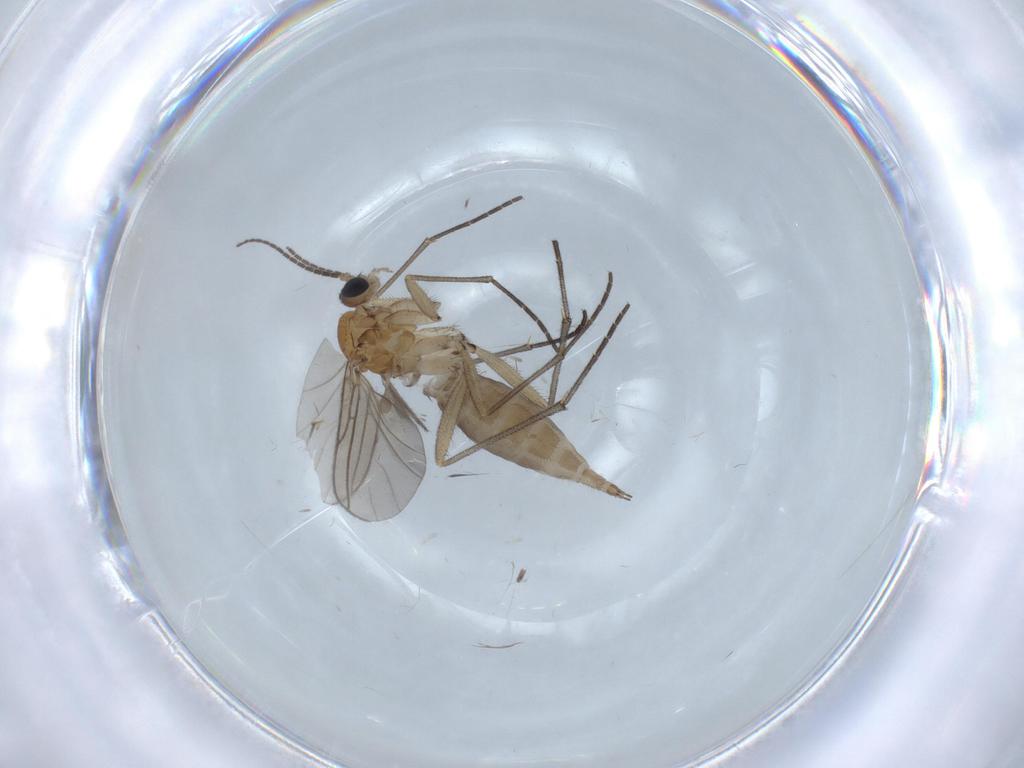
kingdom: Animalia
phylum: Arthropoda
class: Insecta
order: Diptera
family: Sciaridae
